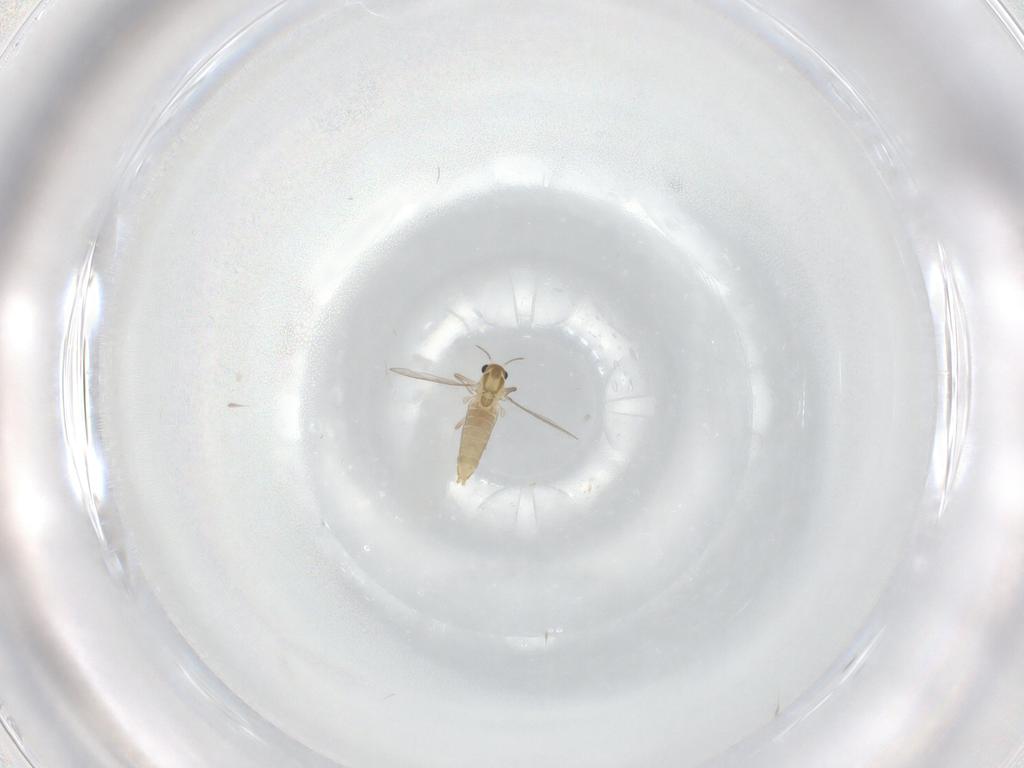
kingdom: Animalia
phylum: Arthropoda
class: Insecta
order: Diptera
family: Chironomidae
